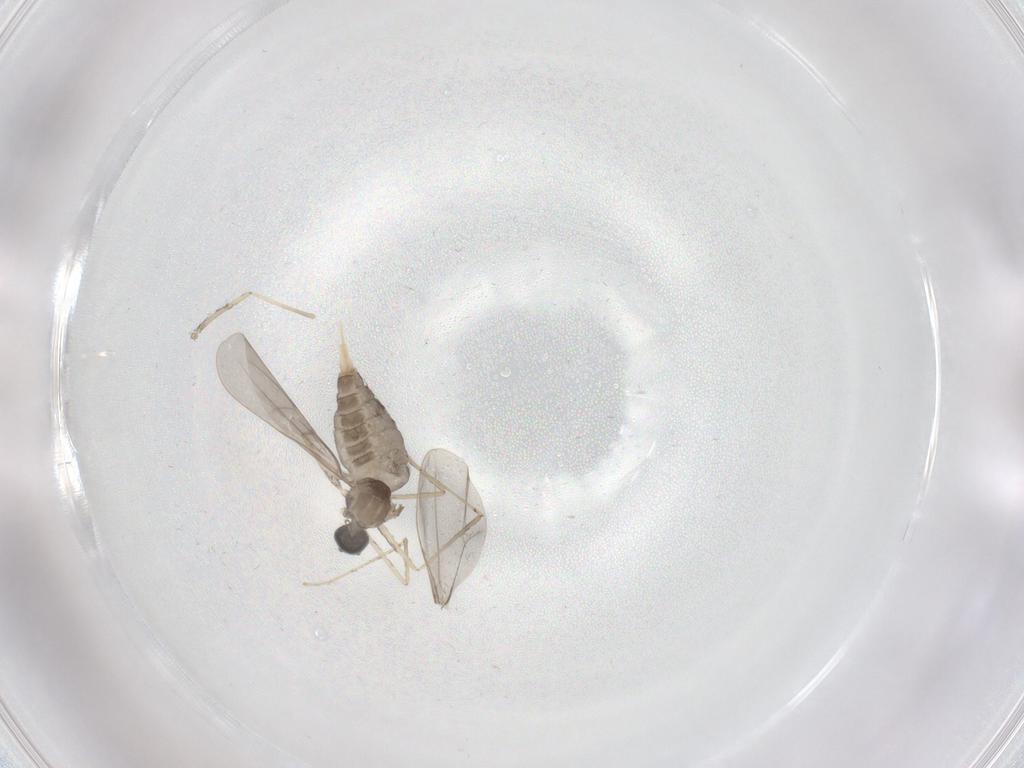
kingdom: Animalia
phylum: Arthropoda
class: Insecta
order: Diptera
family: Cecidomyiidae
